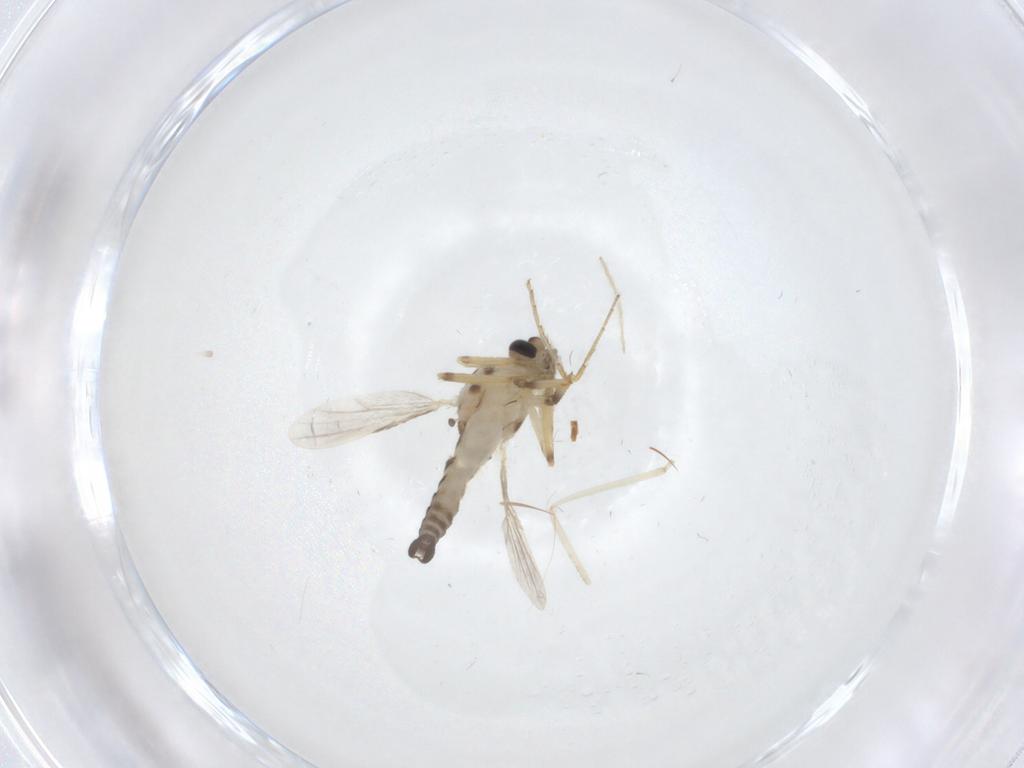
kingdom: Animalia
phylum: Arthropoda
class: Insecta
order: Diptera
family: Chironomidae
